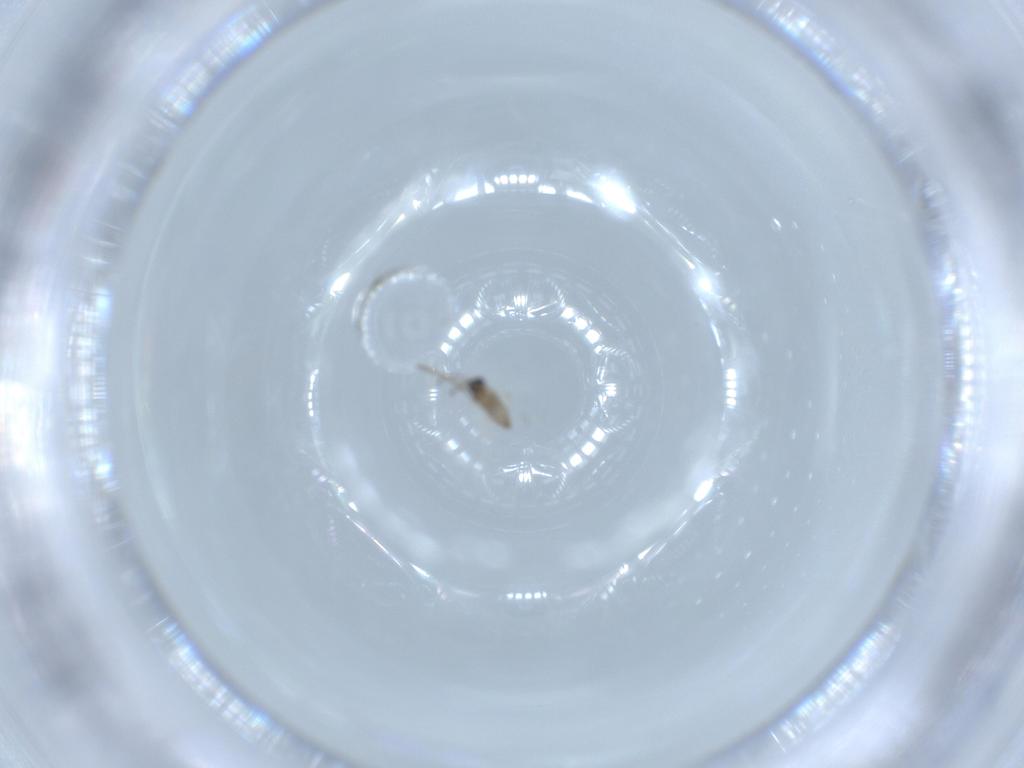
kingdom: Animalia
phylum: Arthropoda
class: Insecta
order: Diptera
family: Cecidomyiidae
